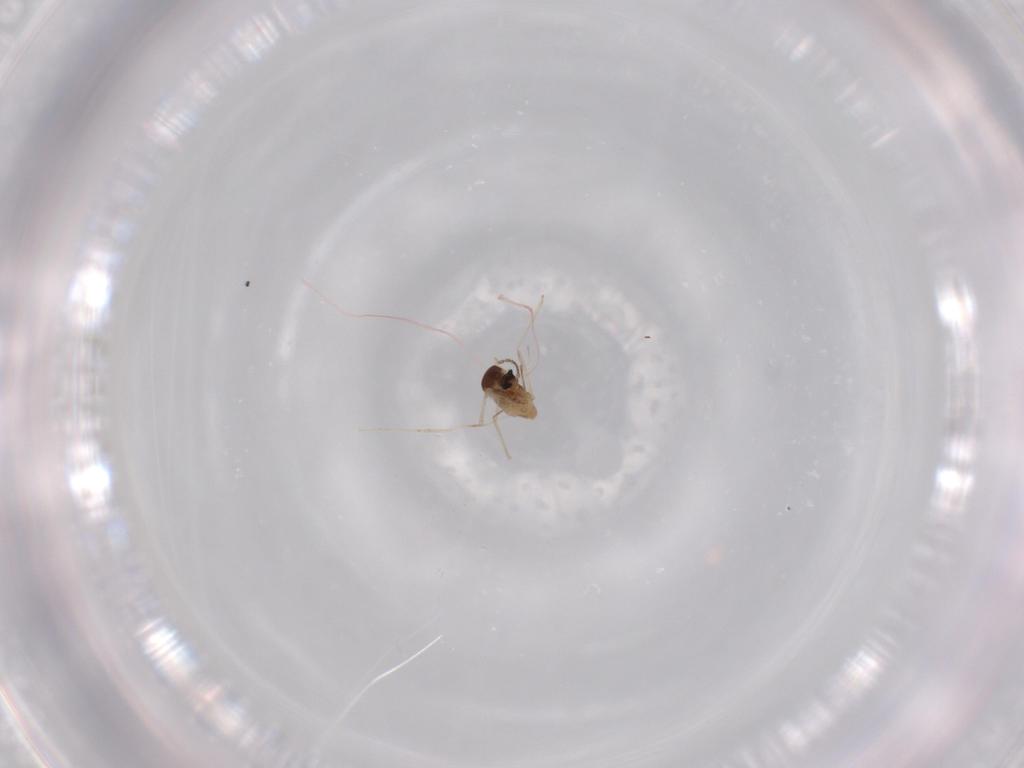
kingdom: Animalia
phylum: Arthropoda
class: Insecta
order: Diptera
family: Cecidomyiidae
